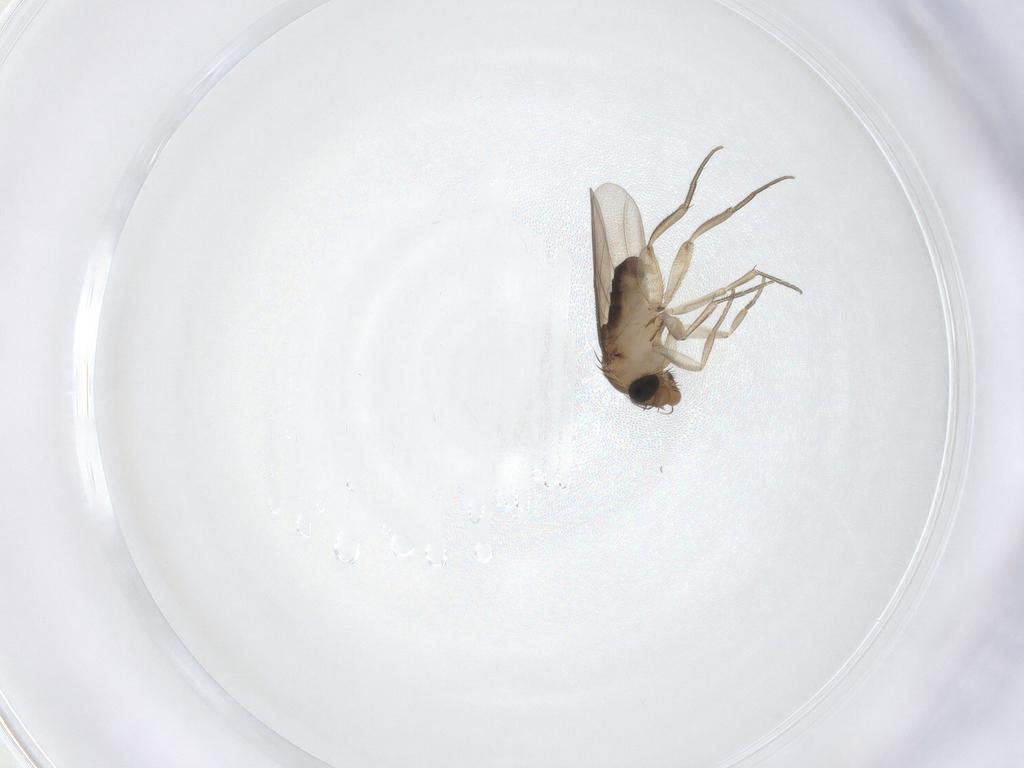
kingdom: Animalia
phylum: Arthropoda
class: Insecta
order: Diptera
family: Phoridae
